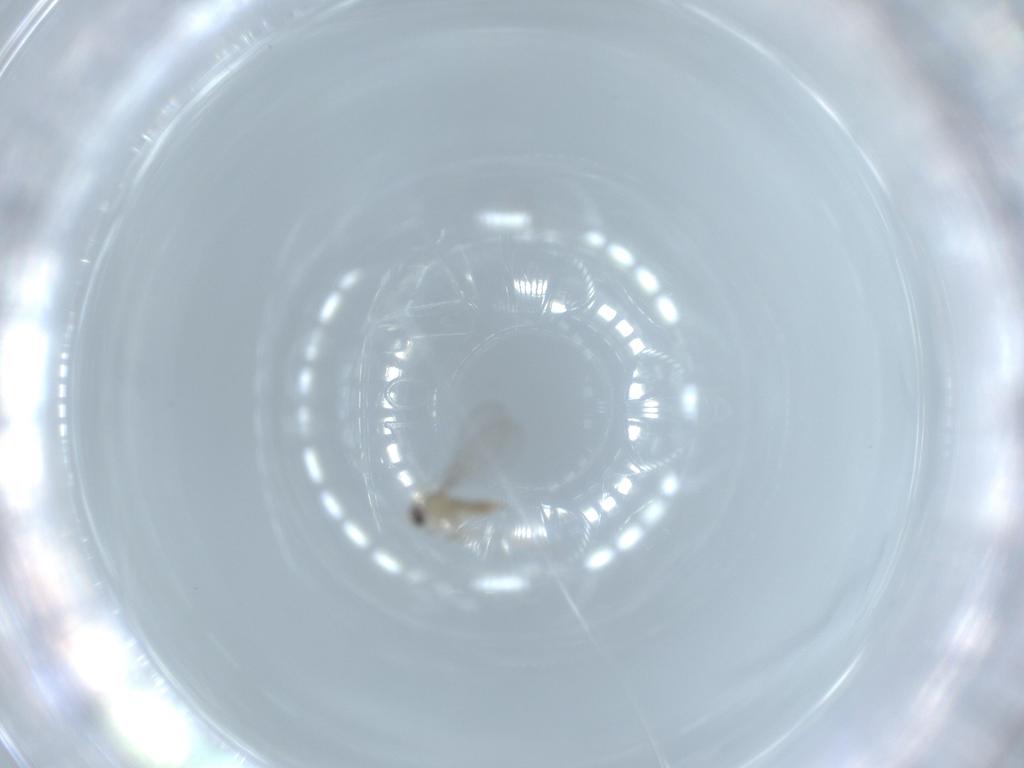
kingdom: Animalia
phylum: Arthropoda
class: Insecta
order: Diptera
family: Cecidomyiidae
